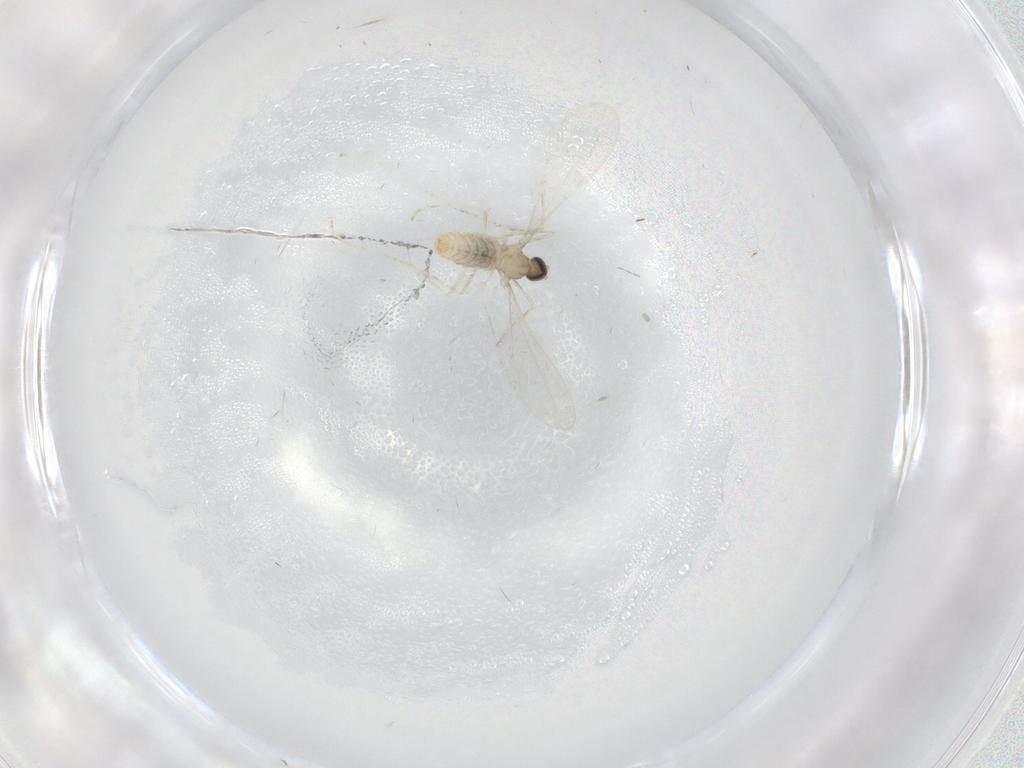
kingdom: Animalia
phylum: Arthropoda
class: Insecta
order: Diptera
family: Cecidomyiidae
